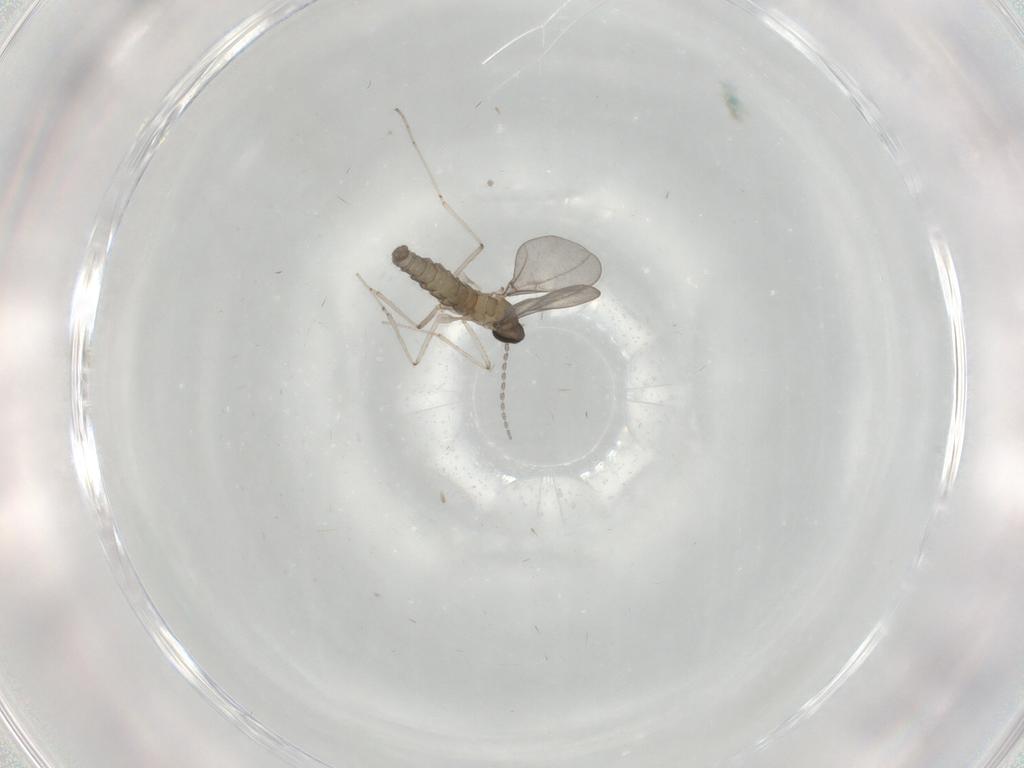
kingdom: Animalia
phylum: Arthropoda
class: Insecta
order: Diptera
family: Cecidomyiidae
